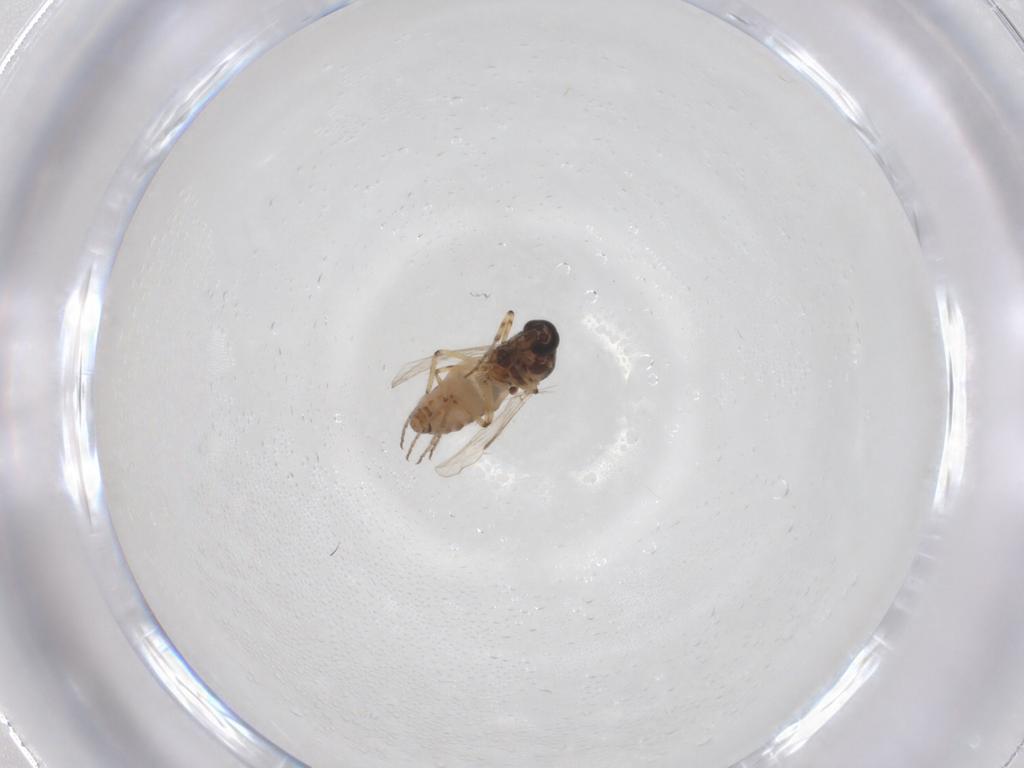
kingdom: Animalia
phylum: Arthropoda
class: Insecta
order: Diptera
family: Ceratopogonidae
